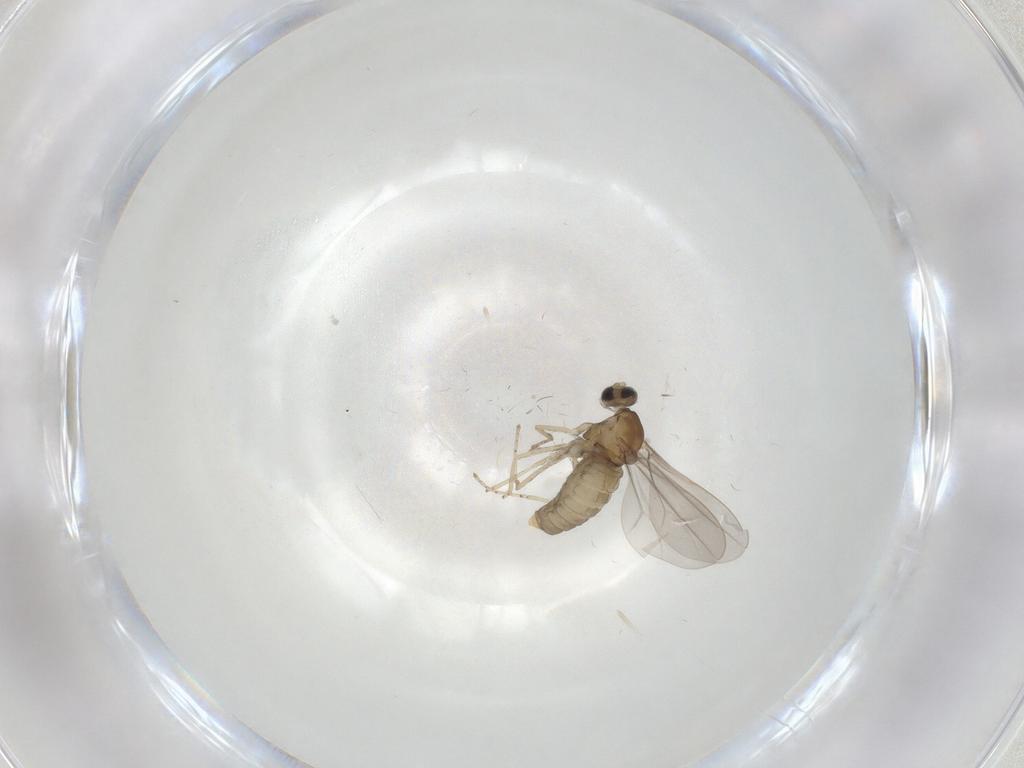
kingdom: Animalia
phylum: Arthropoda
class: Insecta
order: Diptera
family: Cecidomyiidae
